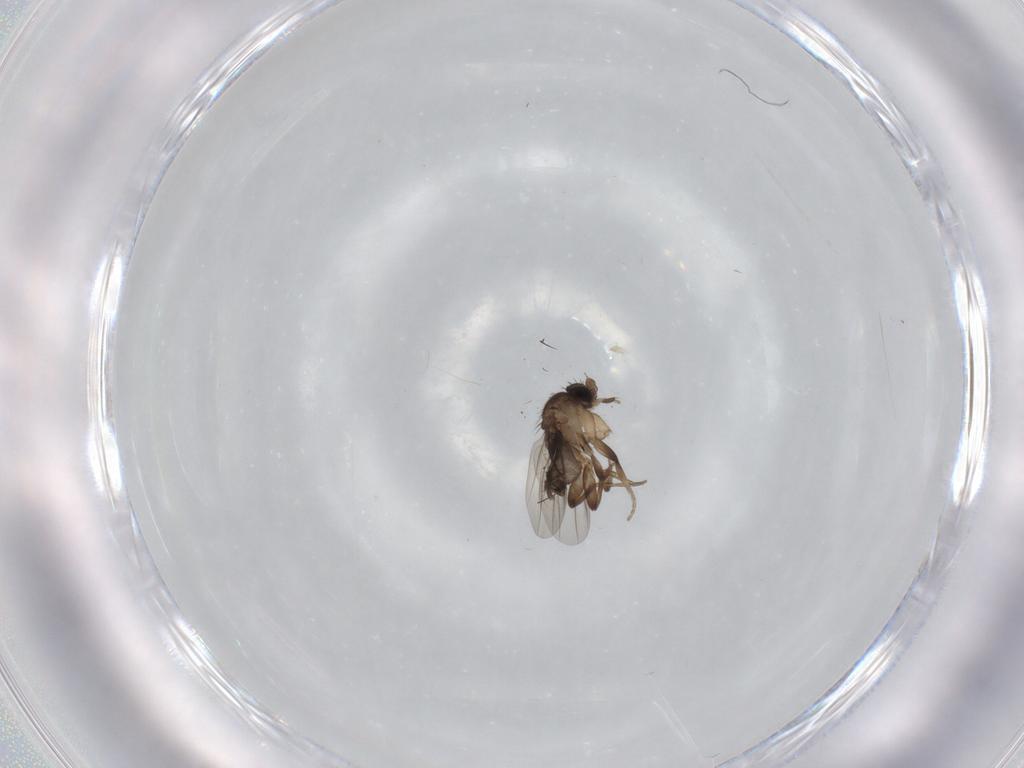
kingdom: Animalia
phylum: Arthropoda
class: Insecta
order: Diptera
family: Phoridae
